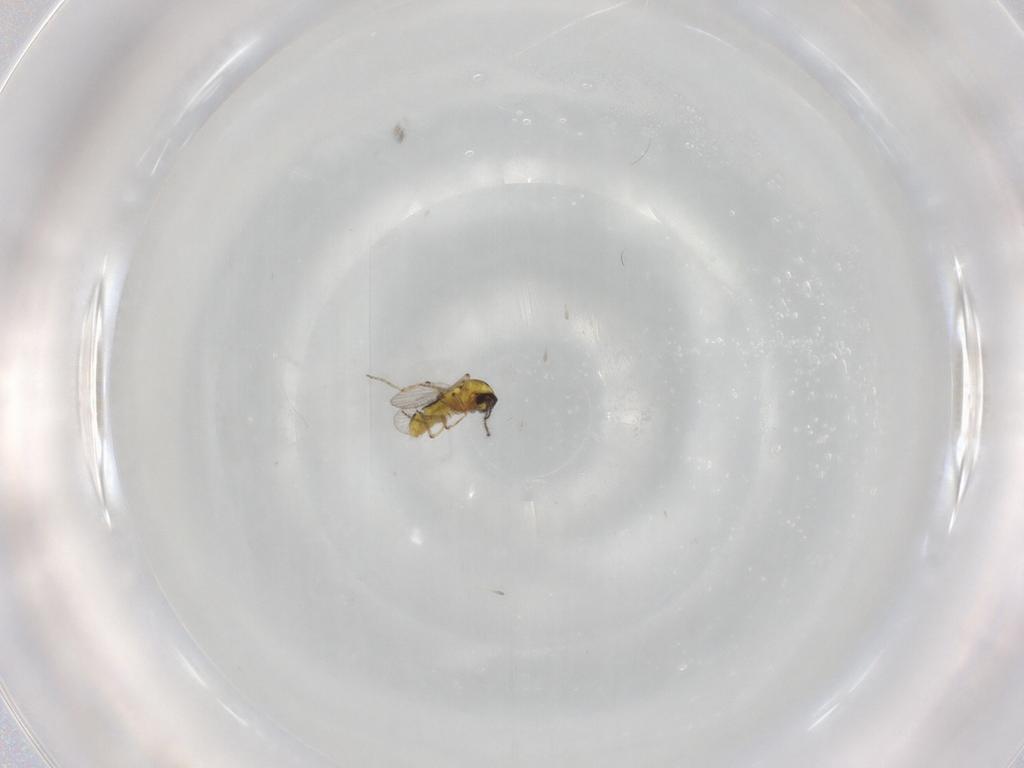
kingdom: Animalia
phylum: Arthropoda
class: Insecta
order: Diptera
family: Ceratopogonidae
